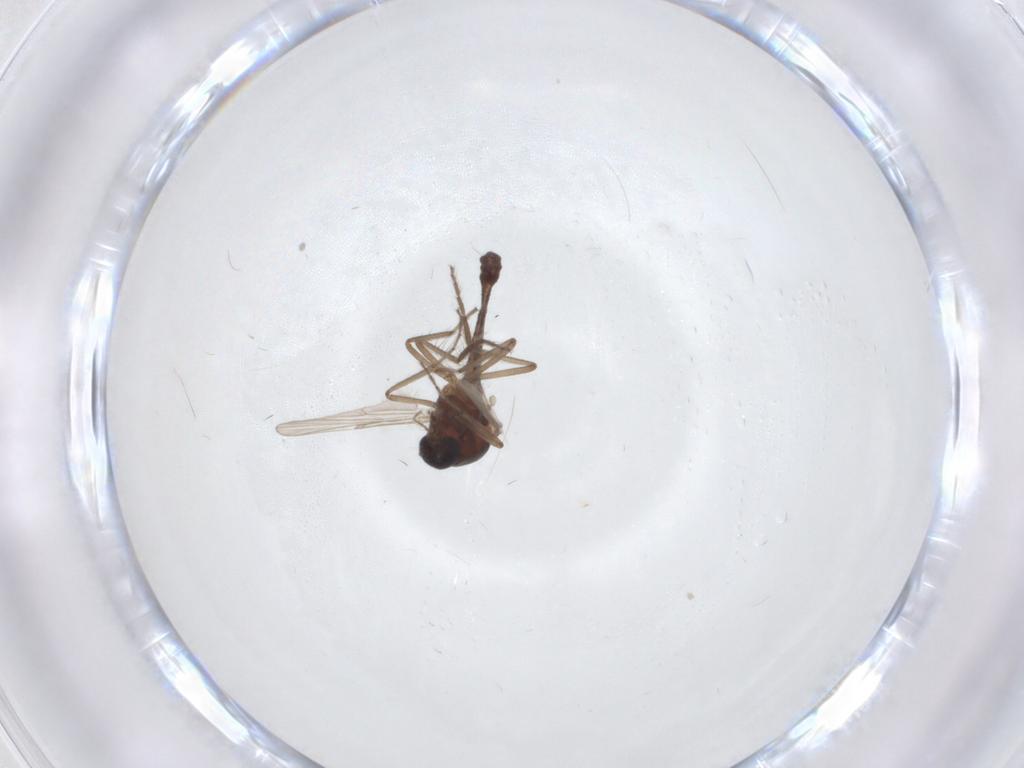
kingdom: Animalia
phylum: Arthropoda
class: Insecta
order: Diptera
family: Ceratopogonidae
